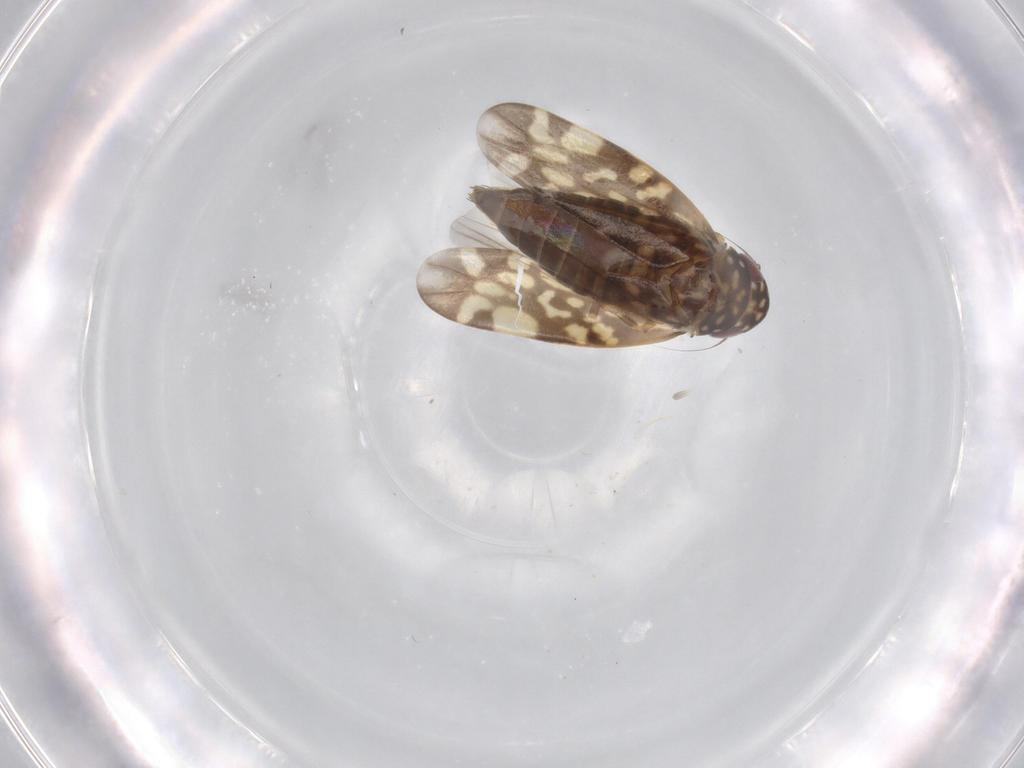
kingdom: Animalia
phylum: Arthropoda
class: Insecta
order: Hemiptera
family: Cicadellidae
